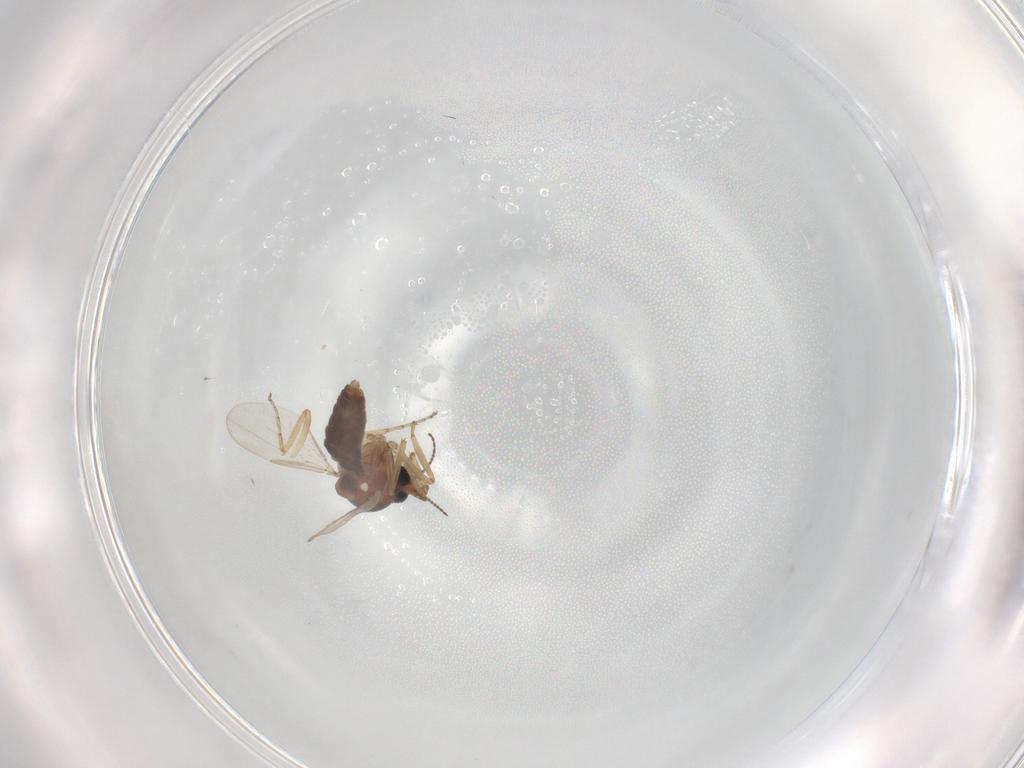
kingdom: Animalia
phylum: Arthropoda
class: Insecta
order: Diptera
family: Ceratopogonidae
